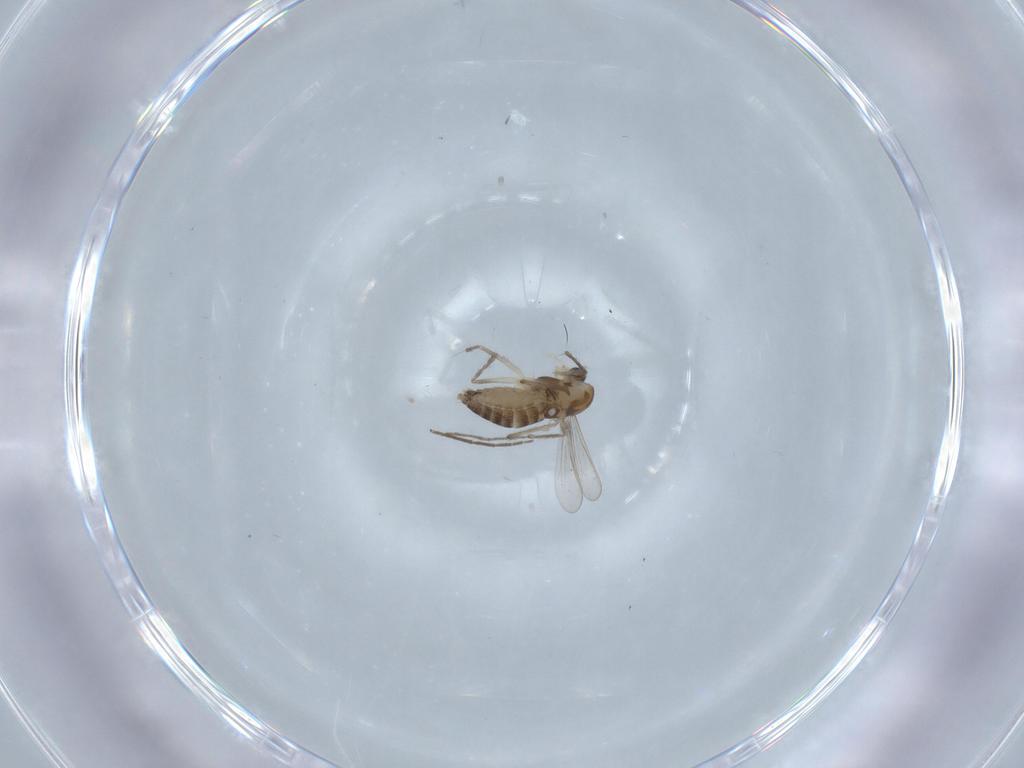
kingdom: Animalia
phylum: Arthropoda
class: Insecta
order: Diptera
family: Chironomidae
